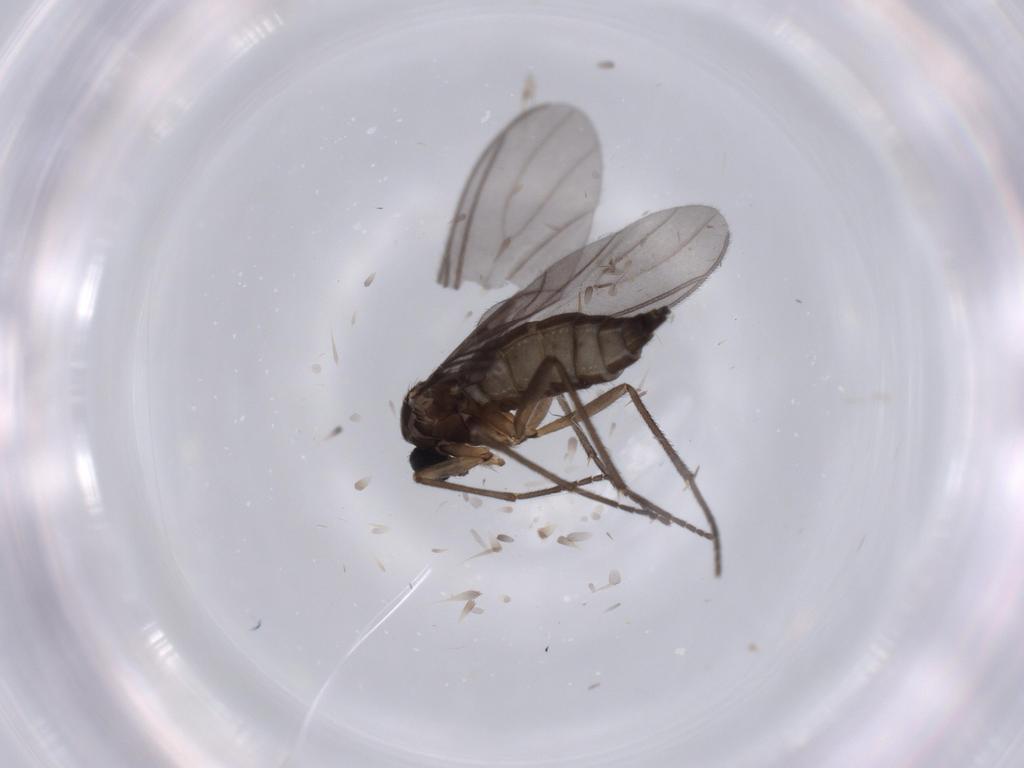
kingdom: Animalia
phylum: Arthropoda
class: Insecta
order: Diptera
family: Sciaridae
